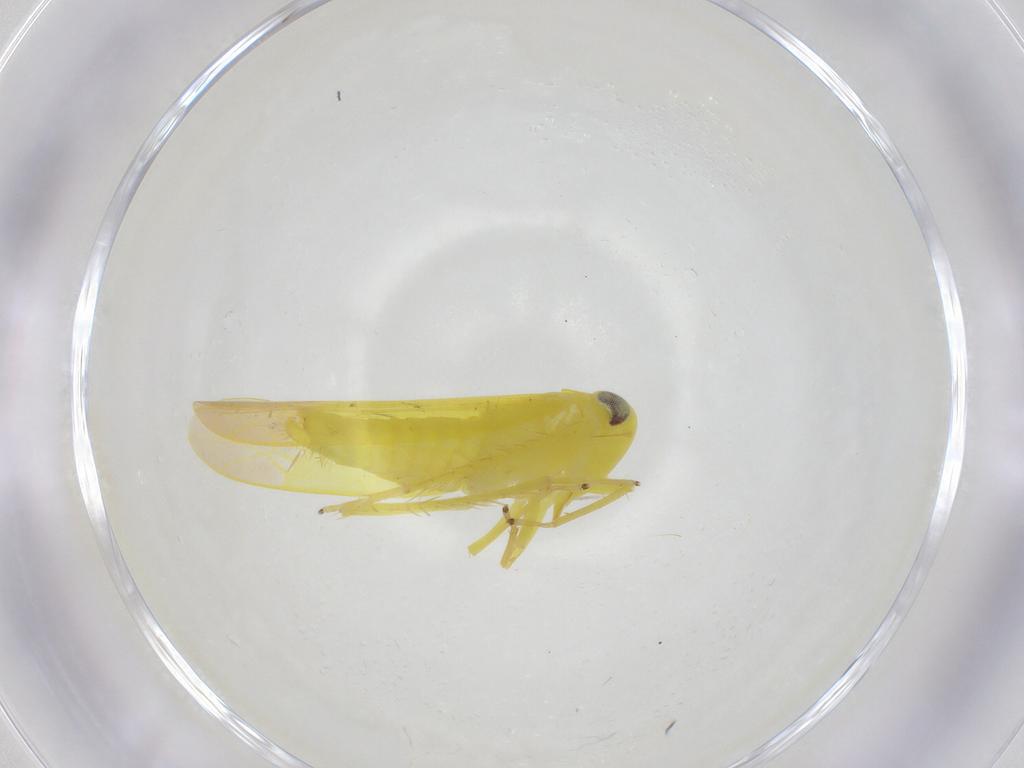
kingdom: Animalia
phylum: Arthropoda
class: Insecta
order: Hemiptera
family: Cicadellidae
